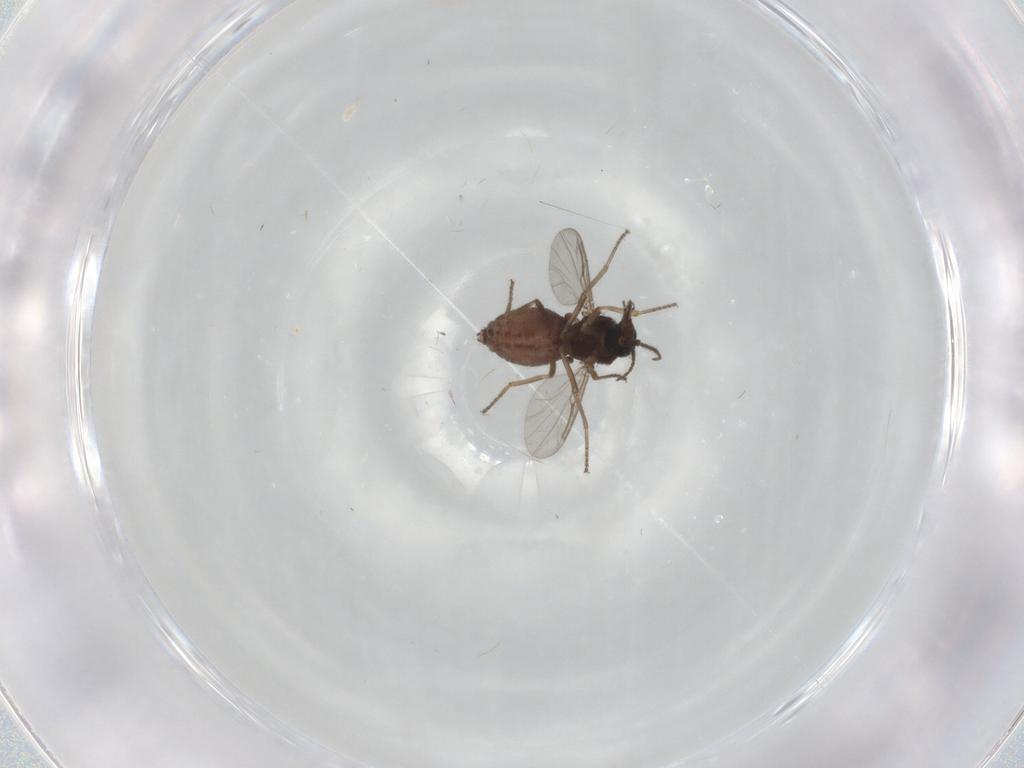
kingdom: Animalia
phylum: Arthropoda
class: Insecta
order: Diptera
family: Ceratopogonidae
